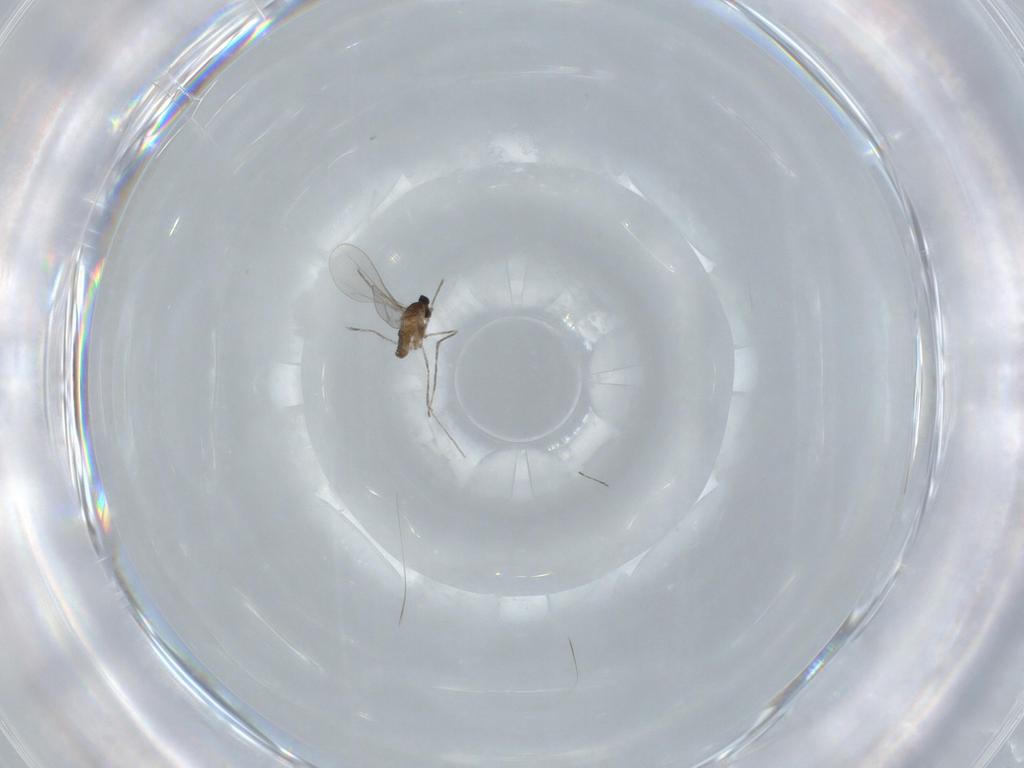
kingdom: Animalia
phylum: Arthropoda
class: Insecta
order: Diptera
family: Cecidomyiidae
